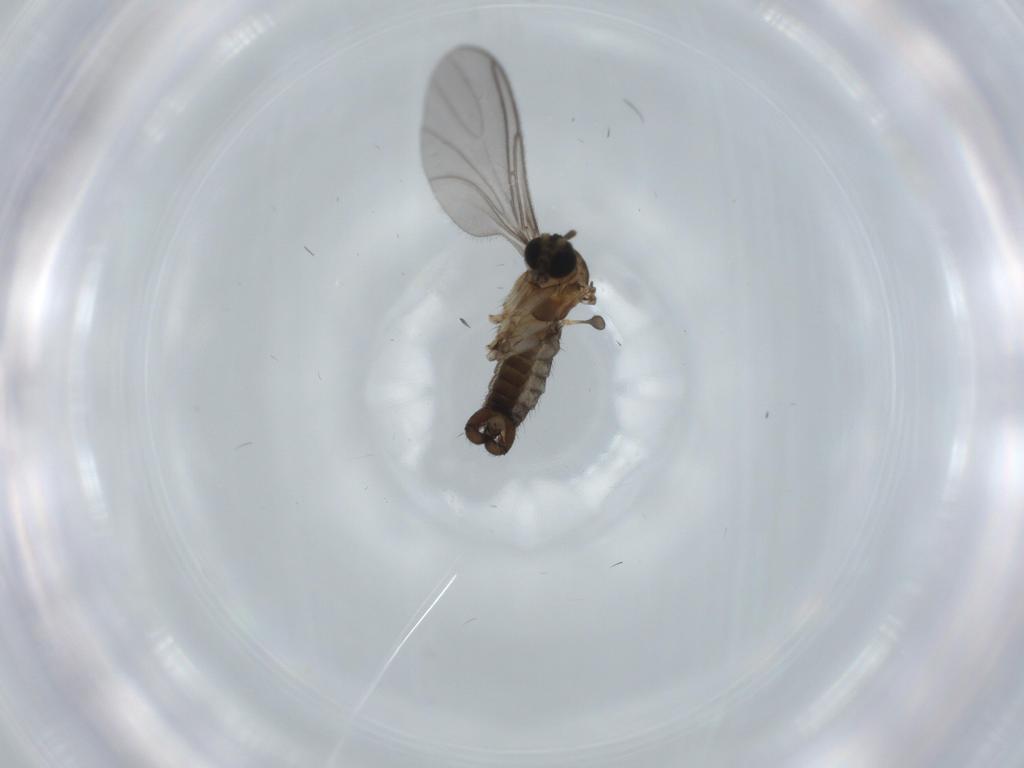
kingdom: Animalia
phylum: Arthropoda
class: Insecta
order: Diptera
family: Sciaridae
